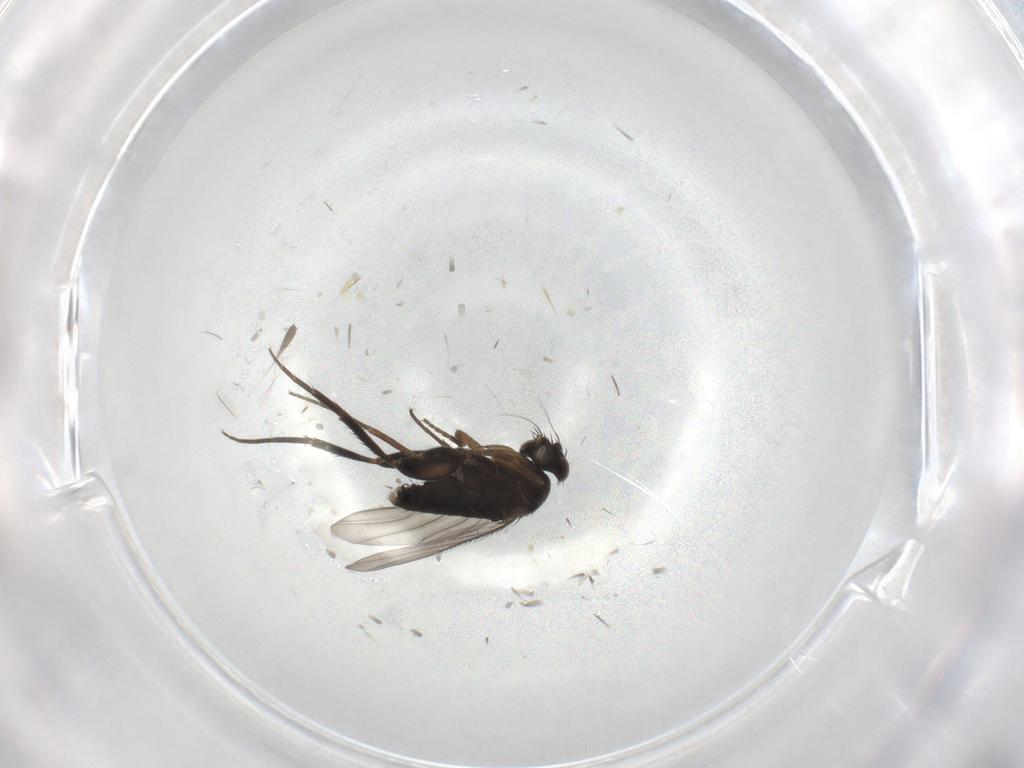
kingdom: Animalia
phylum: Arthropoda
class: Insecta
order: Diptera
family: Phoridae
